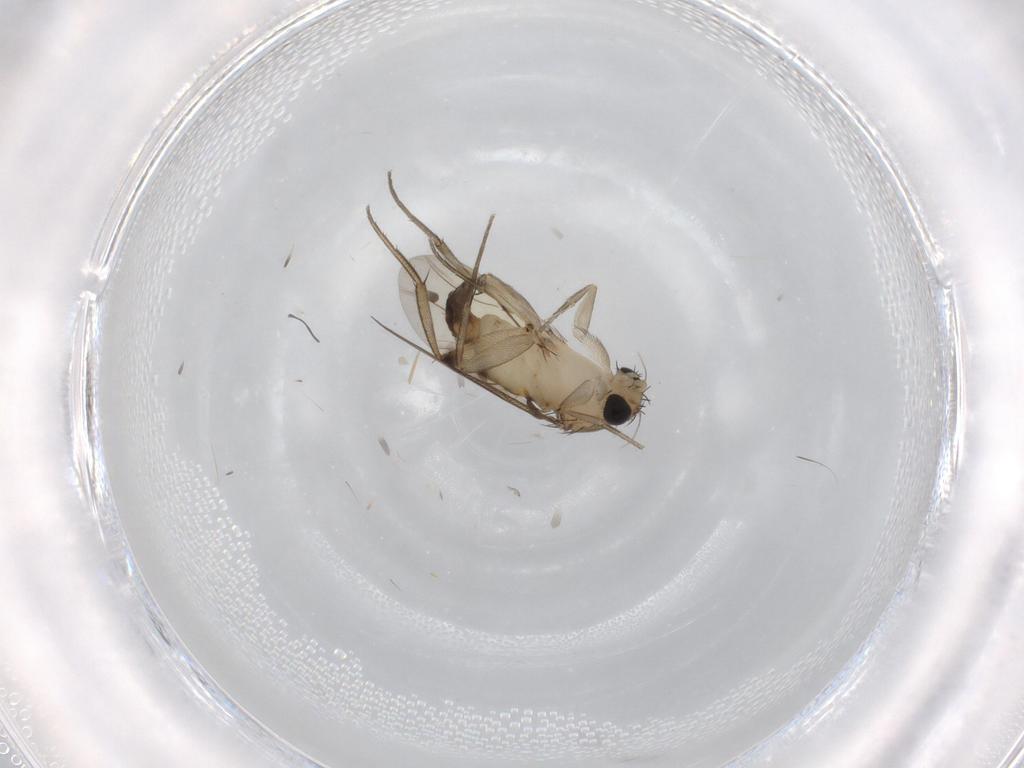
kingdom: Animalia
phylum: Arthropoda
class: Insecta
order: Diptera
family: Phoridae
